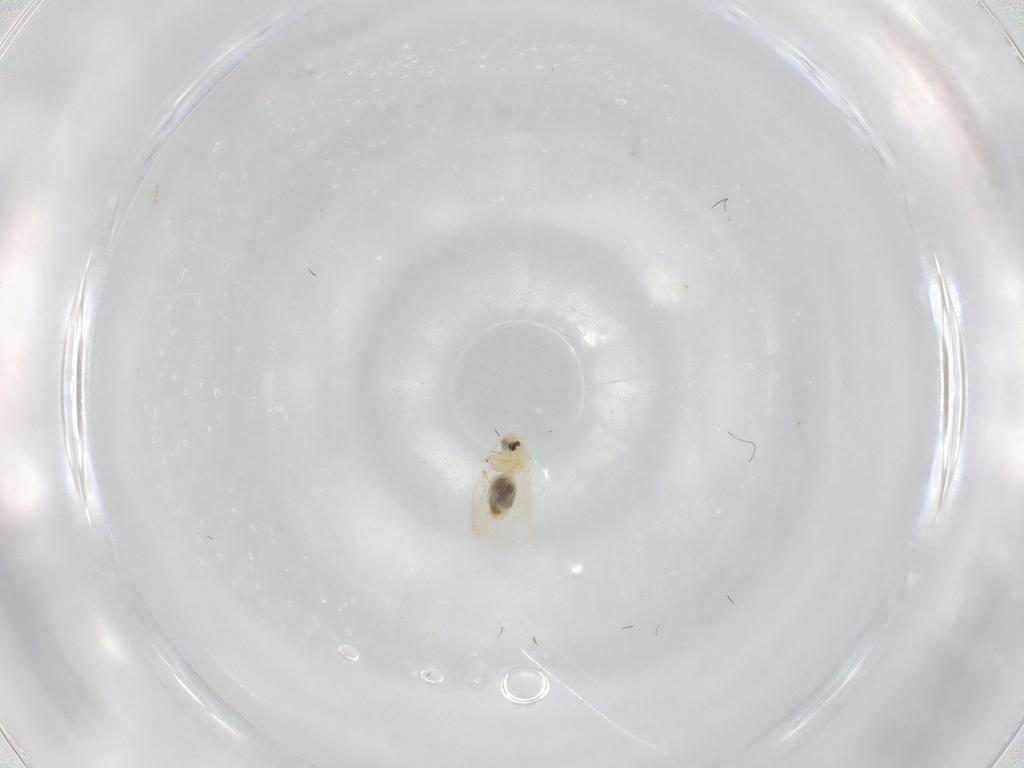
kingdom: Animalia
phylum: Arthropoda
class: Insecta
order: Hemiptera
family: Aleyrodidae
